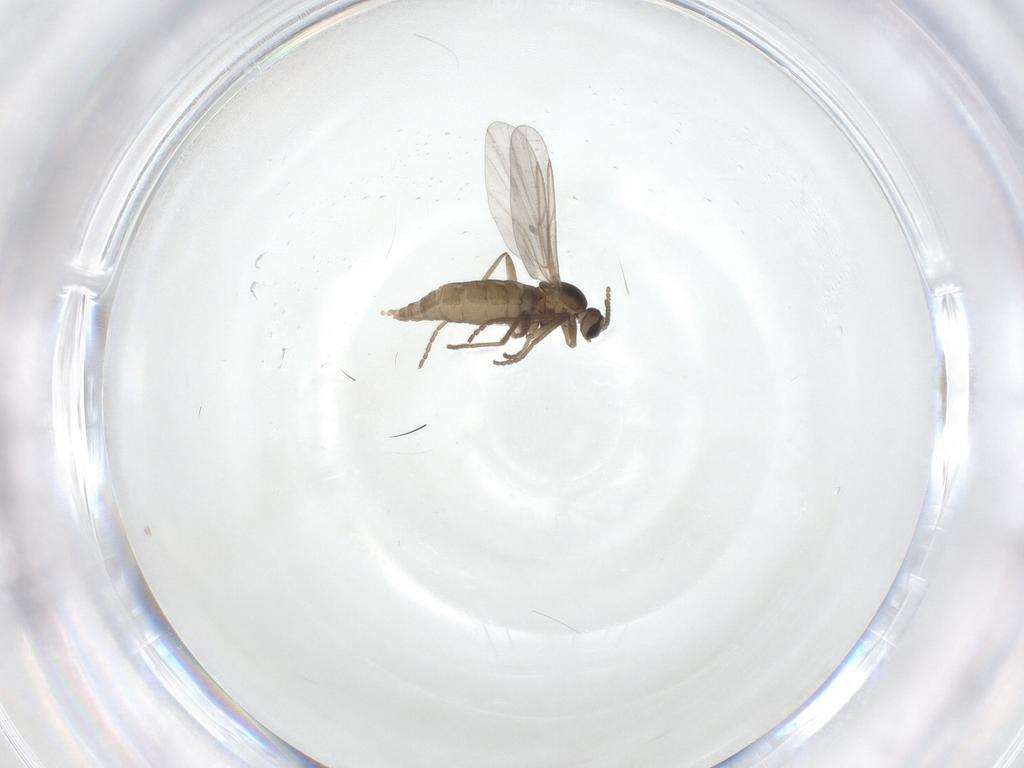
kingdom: Animalia
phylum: Arthropoda
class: Insecta
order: Diptera
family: Cecidomyiidae
